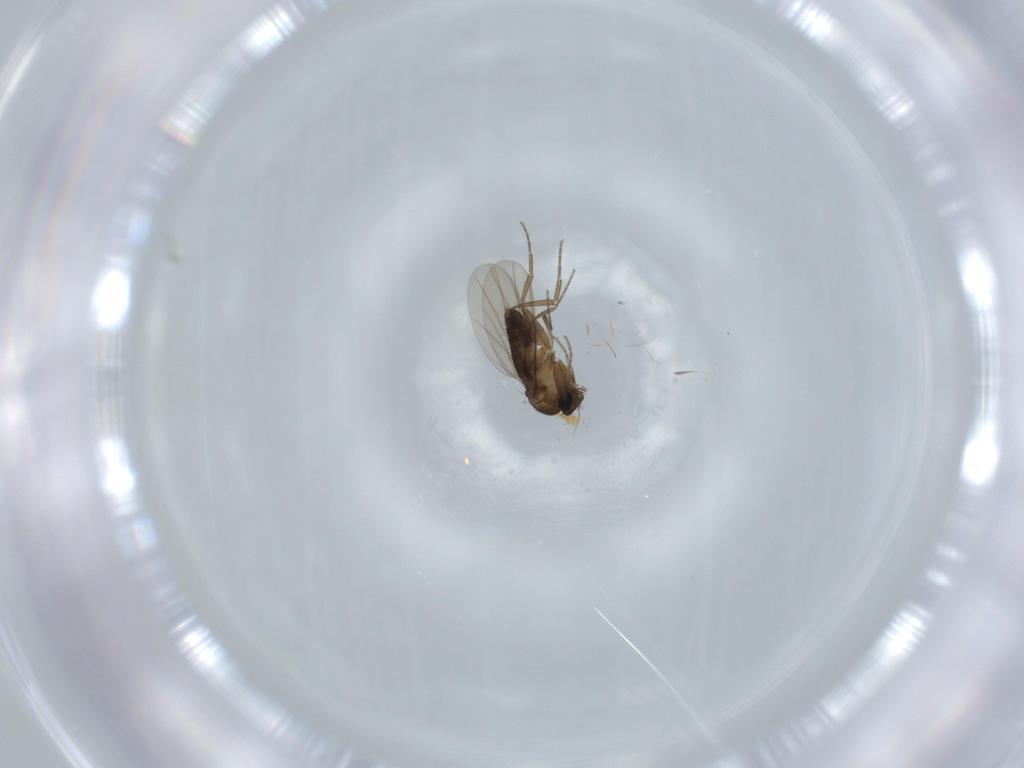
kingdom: Animalia
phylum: Arthropoda
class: Insecta
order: Diptera
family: Phoridae
